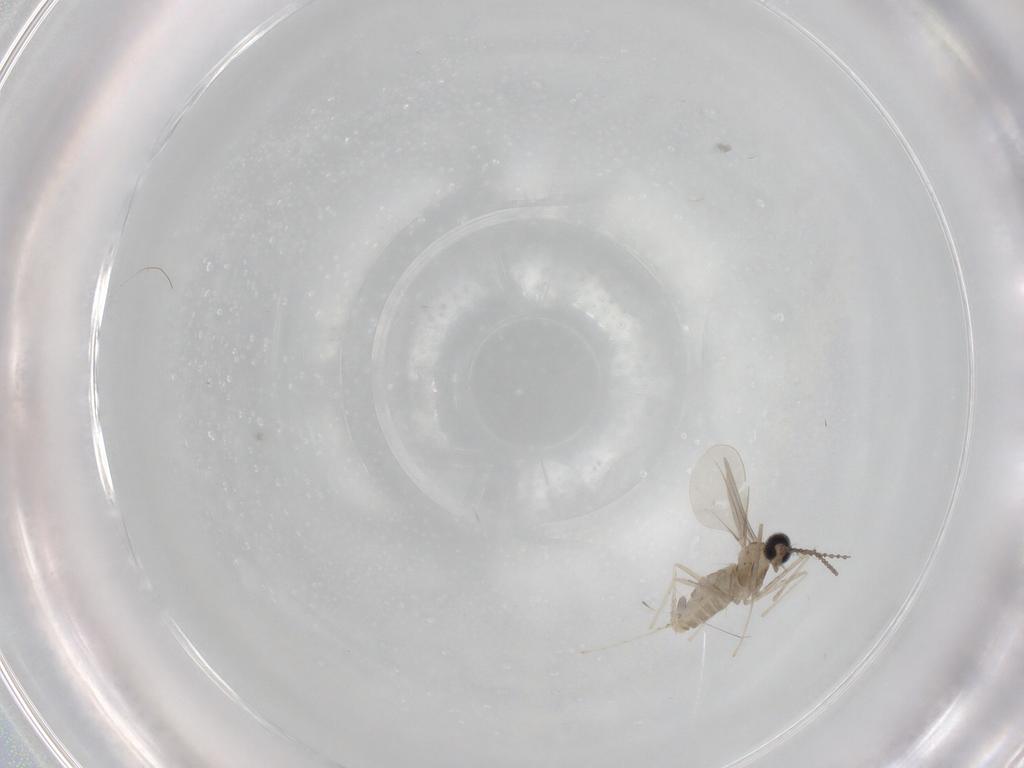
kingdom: Animalia
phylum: Arthropoda
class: Insecta
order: Diptera
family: Cecidomyiidae
